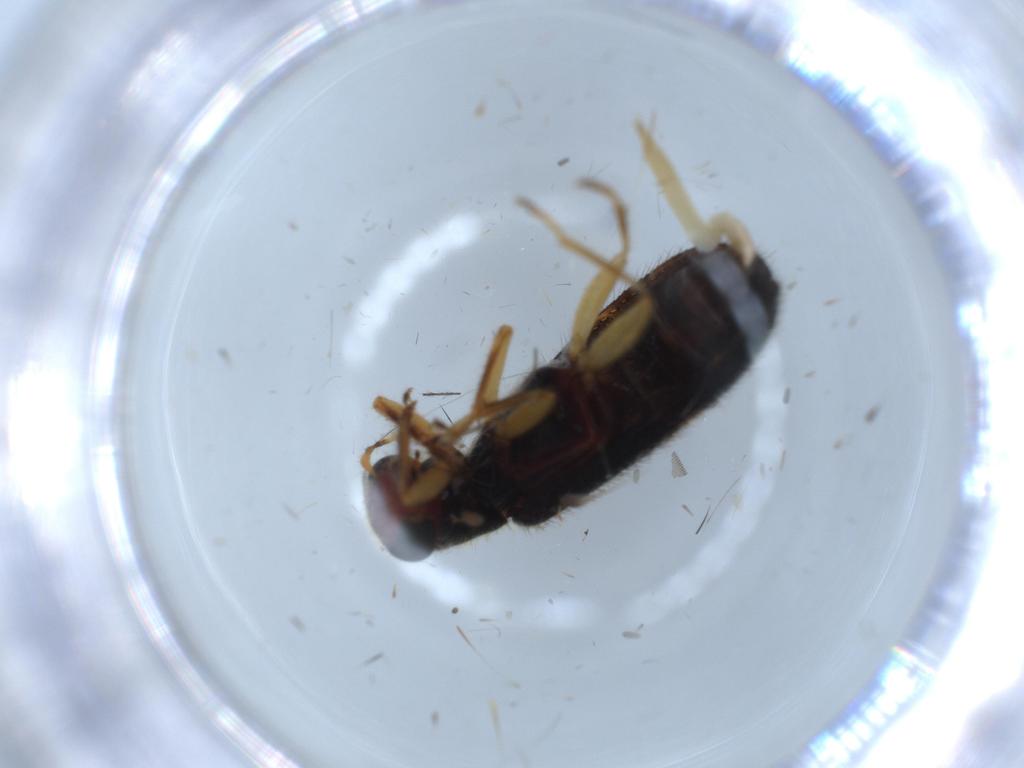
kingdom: Animalia
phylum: Arthropoda
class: Insecta
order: Coleoptera
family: Cleridae
